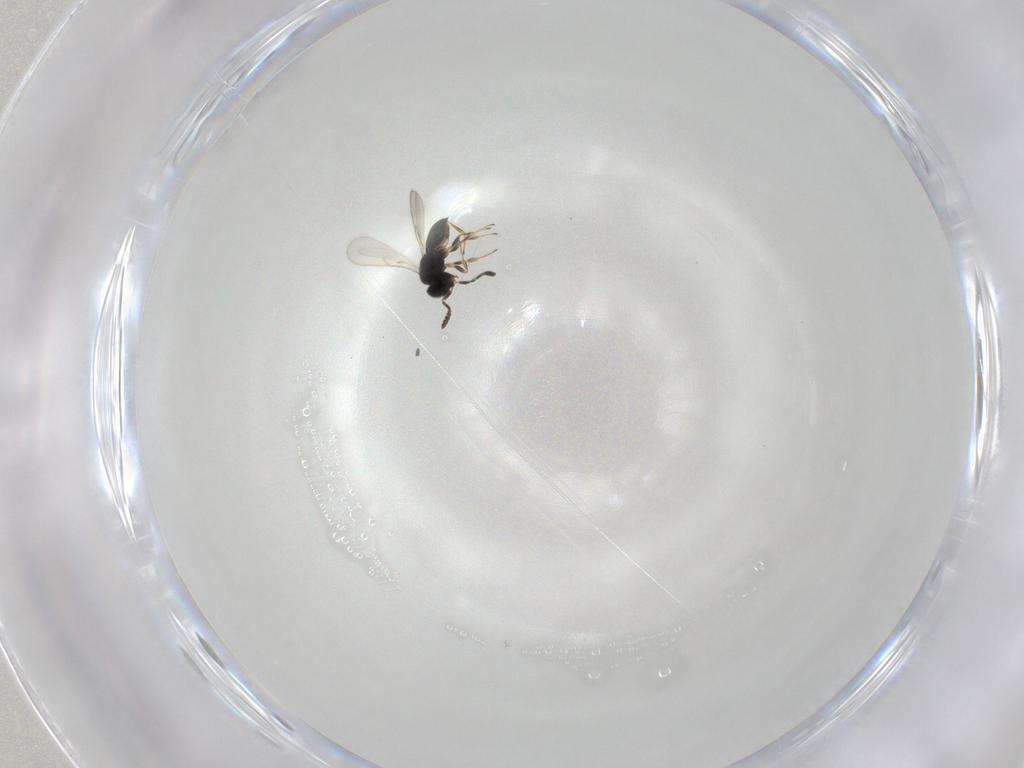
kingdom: Animalia
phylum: Arthropoda
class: Insecta
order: Hymenoptera
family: Scelionidae
